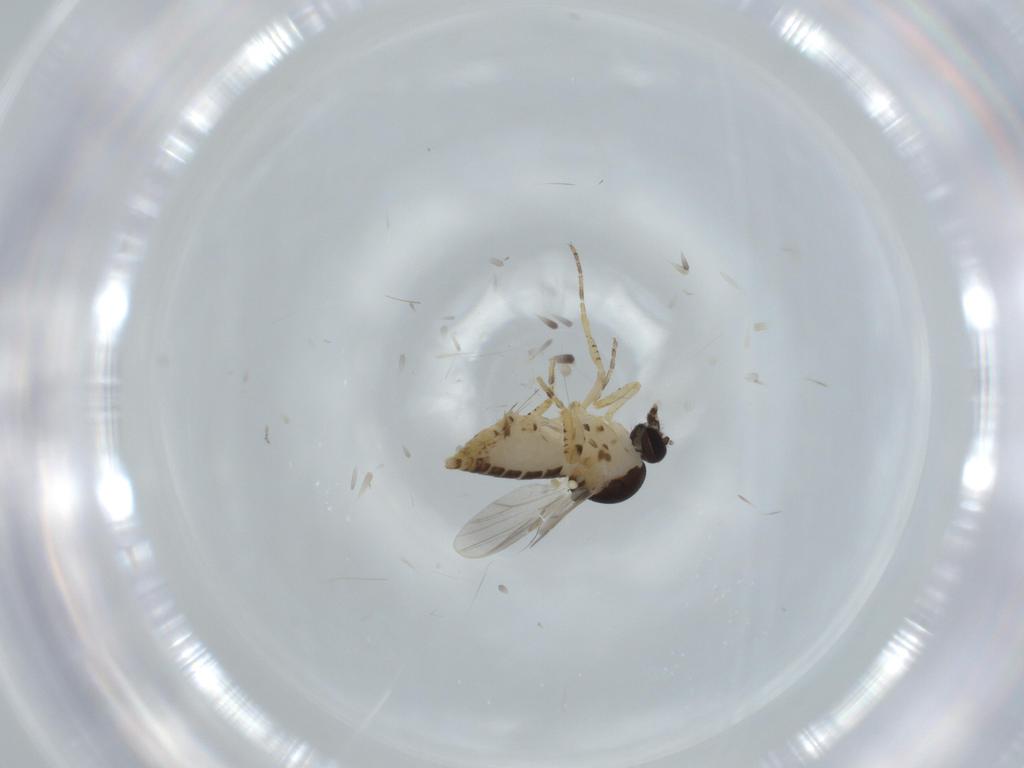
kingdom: Animalia
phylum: Arthropoda
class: Insecta
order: Diptera
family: Ceratopogonidae
